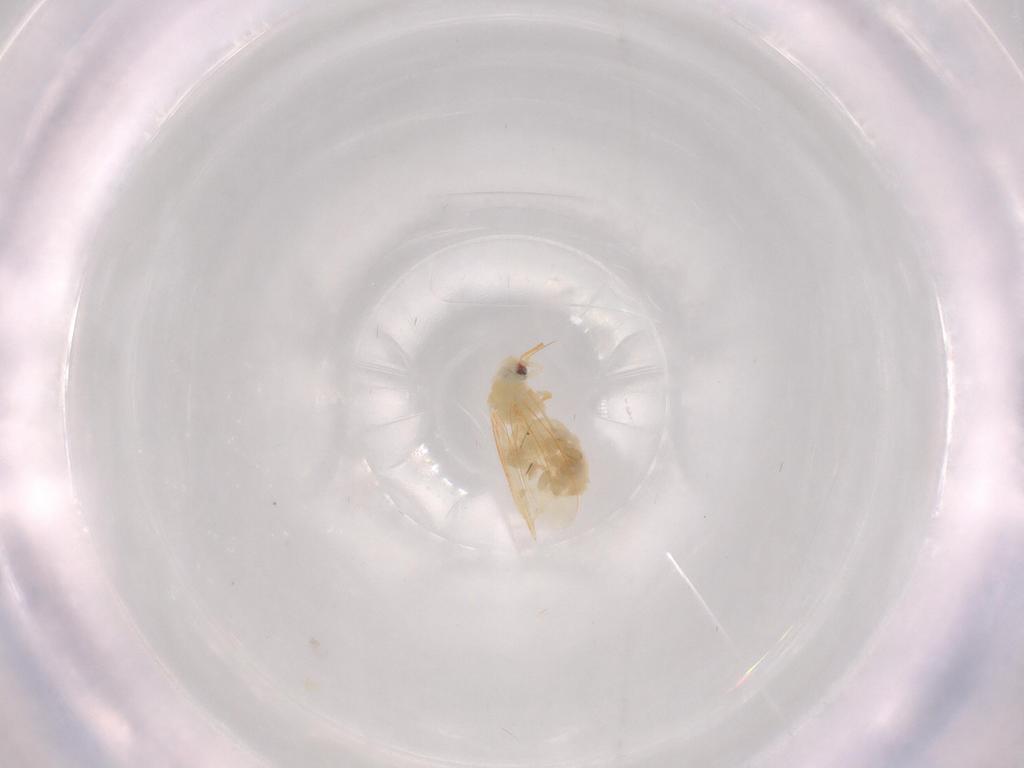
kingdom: Animalia
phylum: Arthropoda
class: Insecta
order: Hemiptera
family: Aleyrodidae
